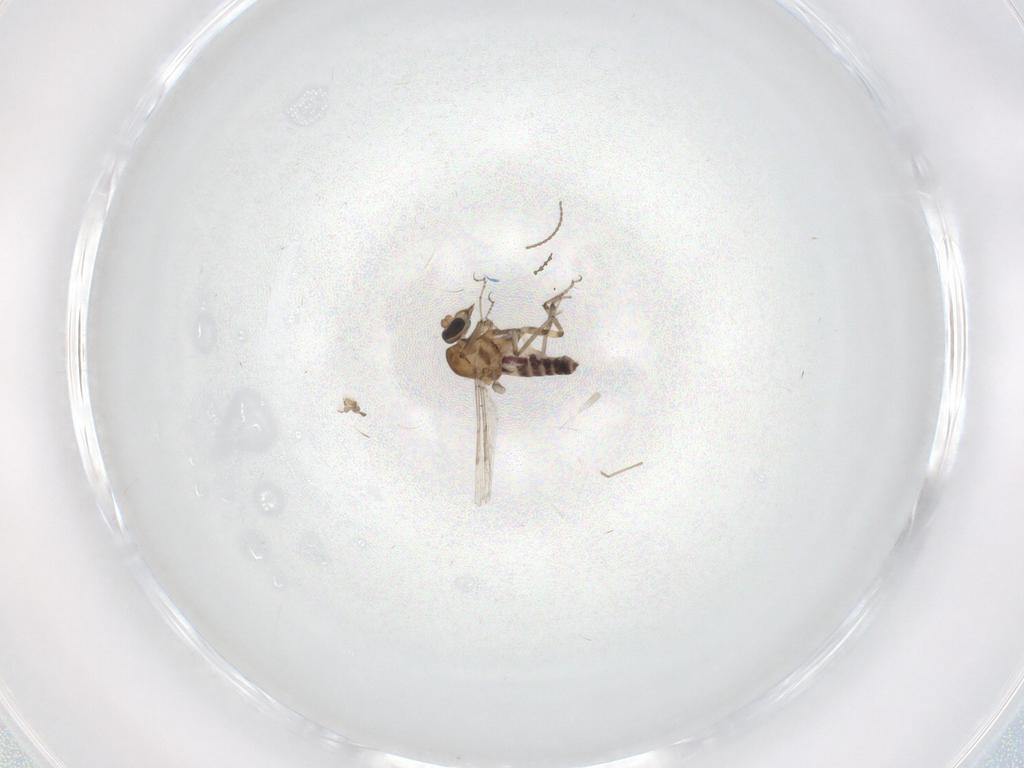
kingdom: Animalia
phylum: Arthropoda
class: Insecta
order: Diptera
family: Cecidomyiidae
